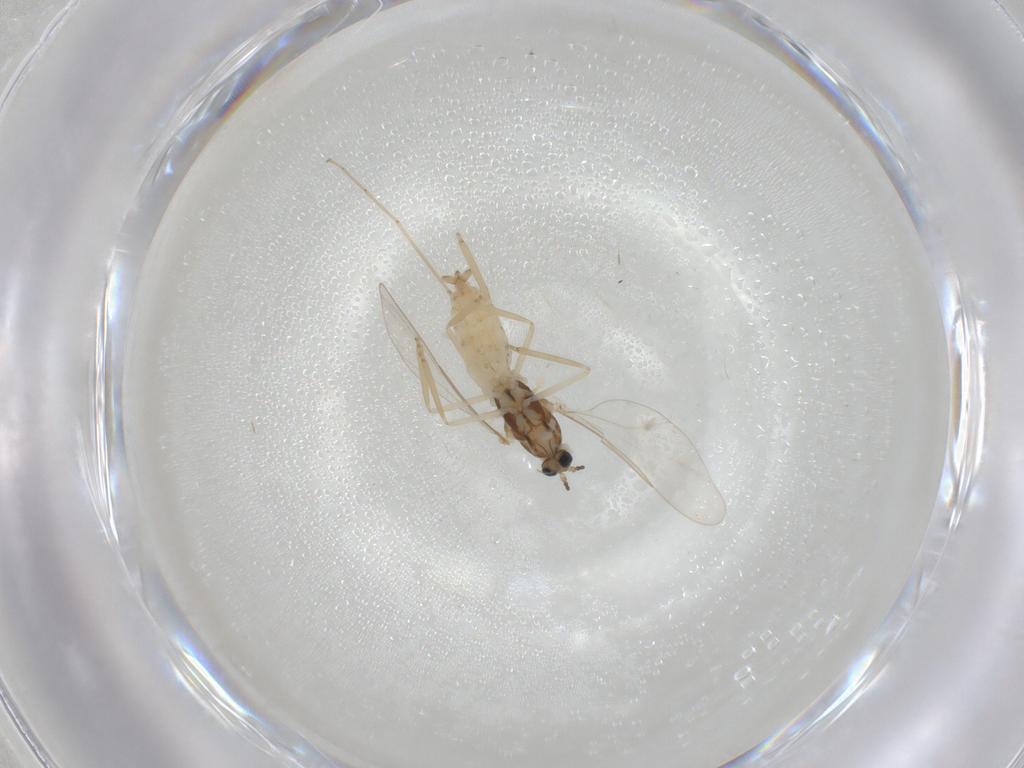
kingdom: Animalia
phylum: Arthropoda
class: Insecta
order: Diptera
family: Cecidomyiidae
